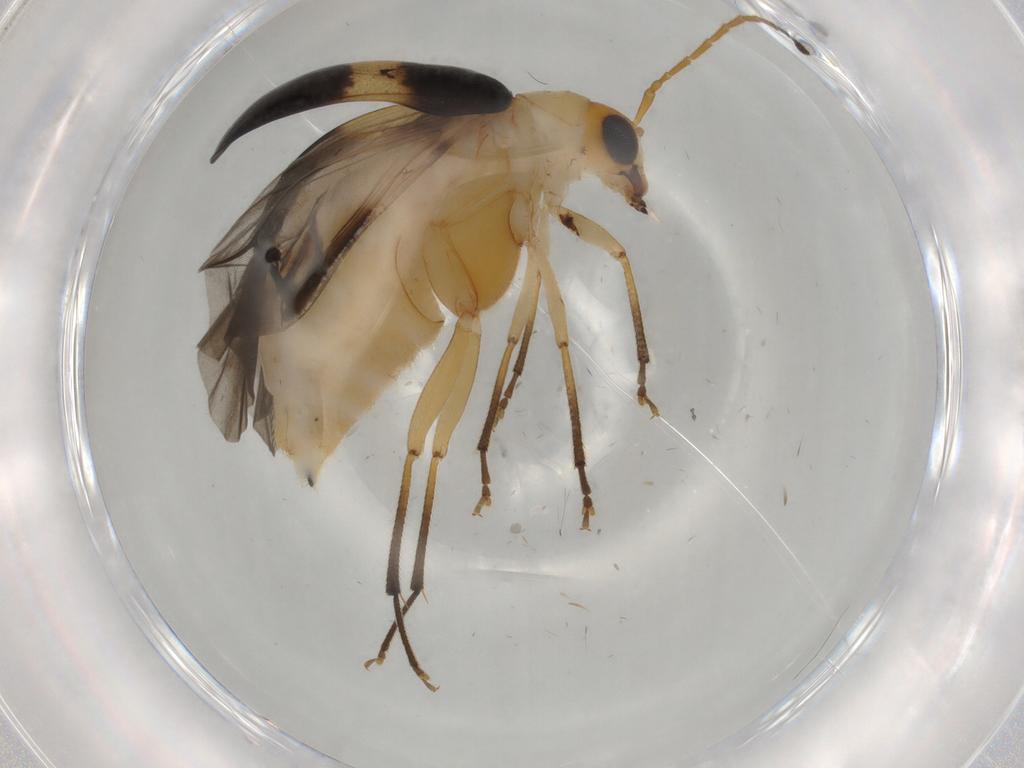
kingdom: Animalia
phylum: Arthropoda
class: Insecta
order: Coleoptera
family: Chrysomelidae
